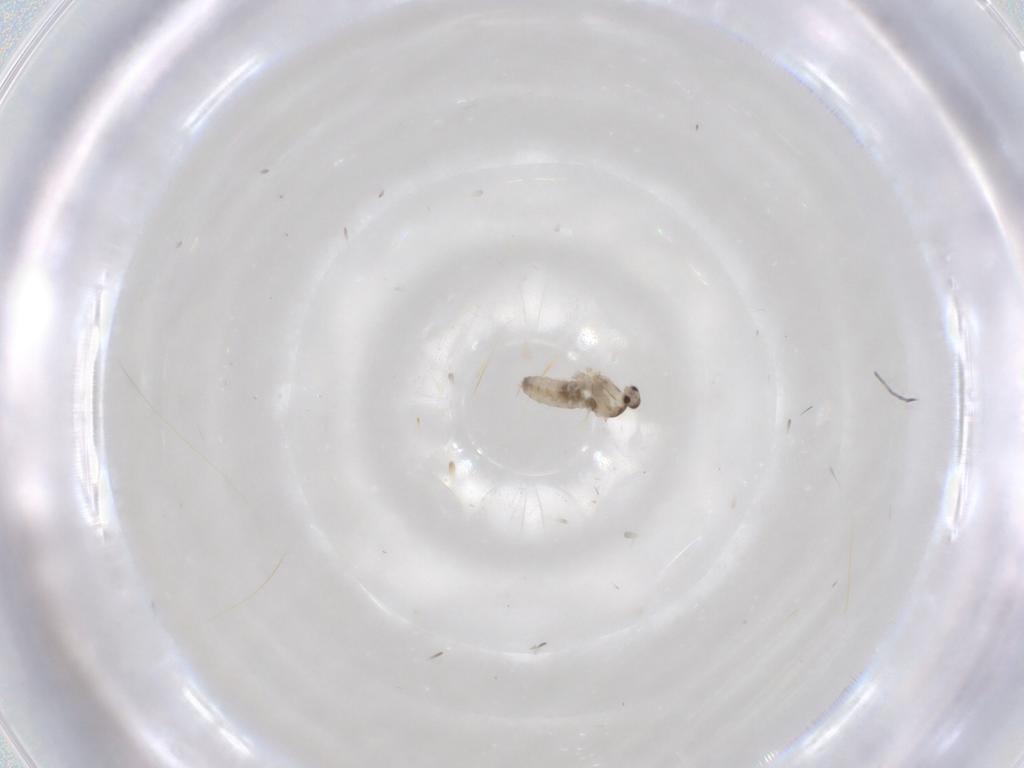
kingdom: Animalia
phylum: Arthropoda
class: Insecta
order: Diptera
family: Cecidomyiidae
